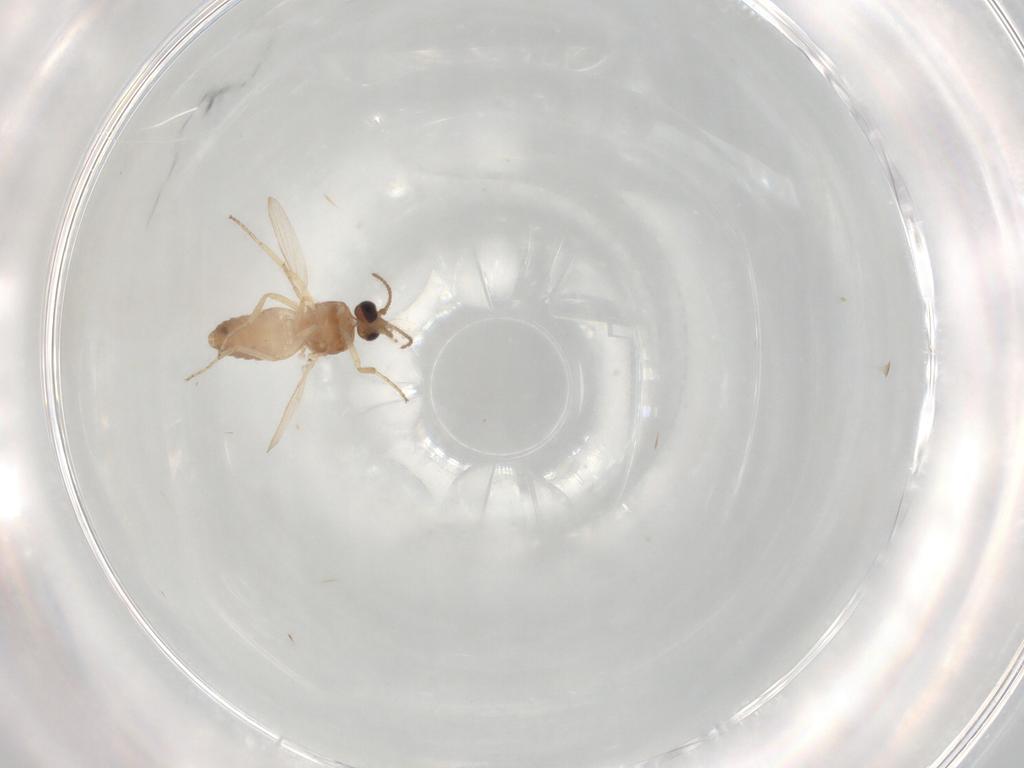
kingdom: Animalia
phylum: Arthropoda
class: Insecta
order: Diptera
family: Ceratopogonidae
